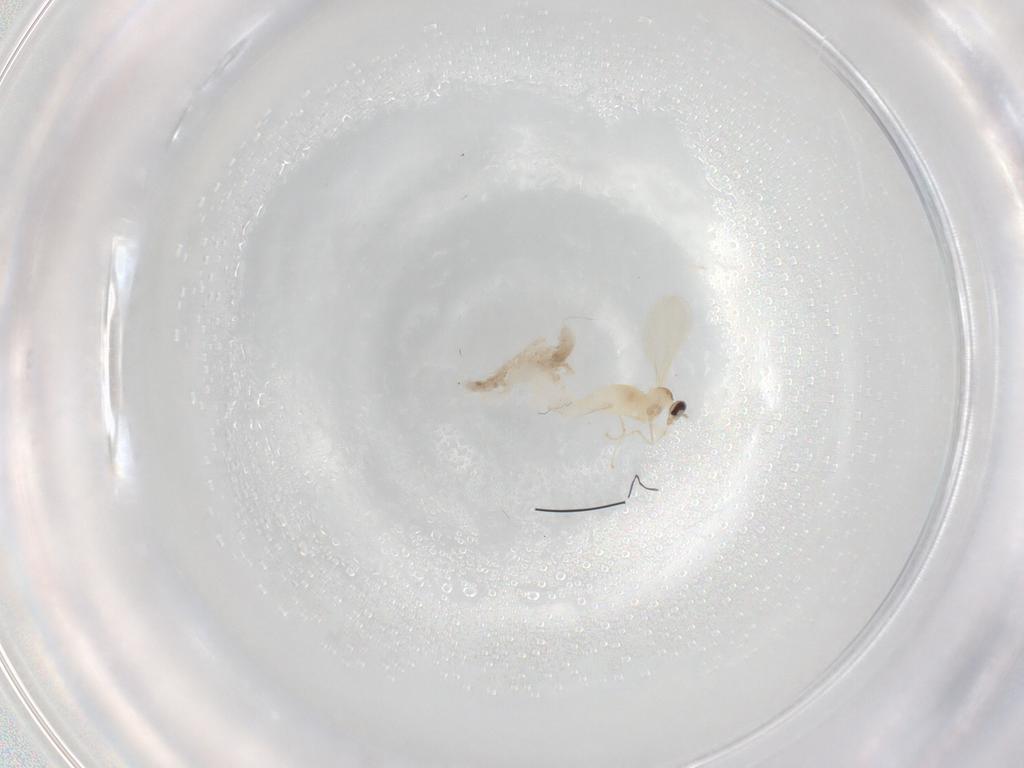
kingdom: Animalia
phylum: Arthropoda
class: Insecta
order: Diptera
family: Cecidomyiidae
